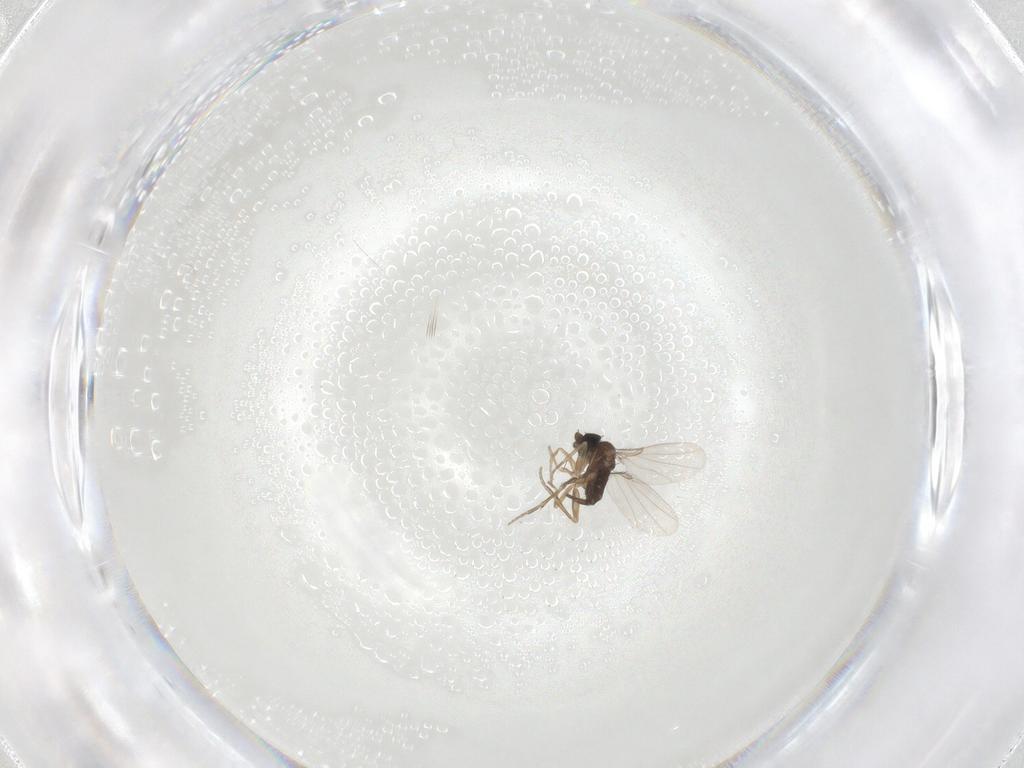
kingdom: Animalia
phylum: Arthropoda
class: Insecta
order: Diptera
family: Phoridae
